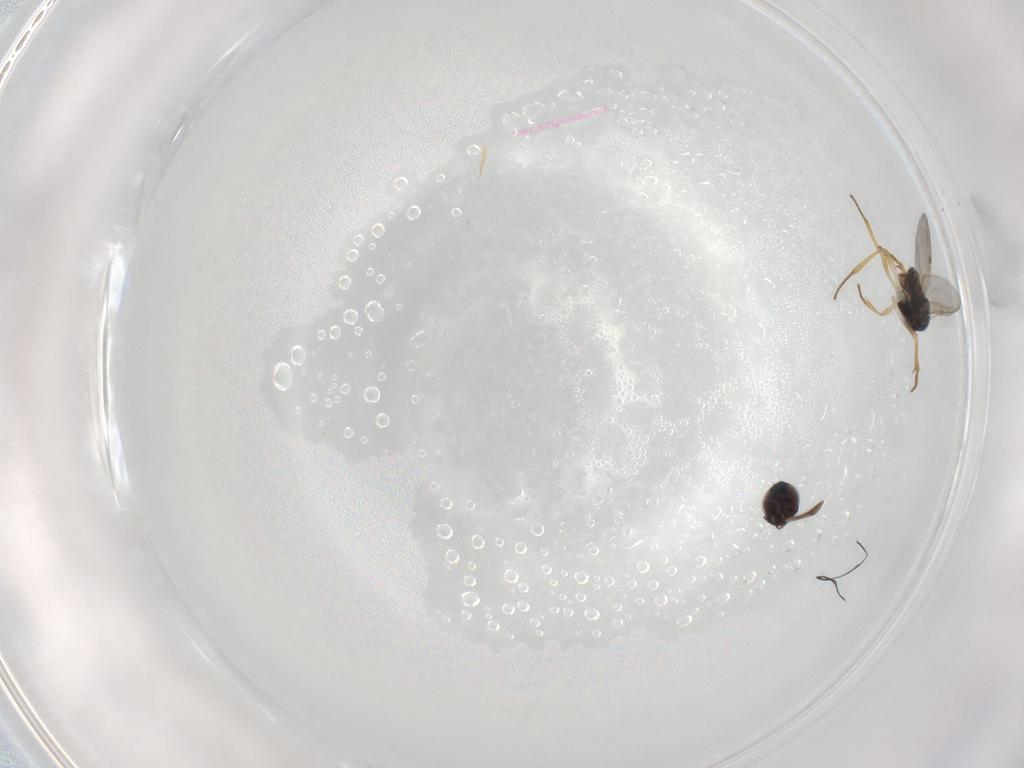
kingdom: Animalia
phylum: Arthropoda
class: Insecta
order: Hymenoptera
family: Encyrtidae
